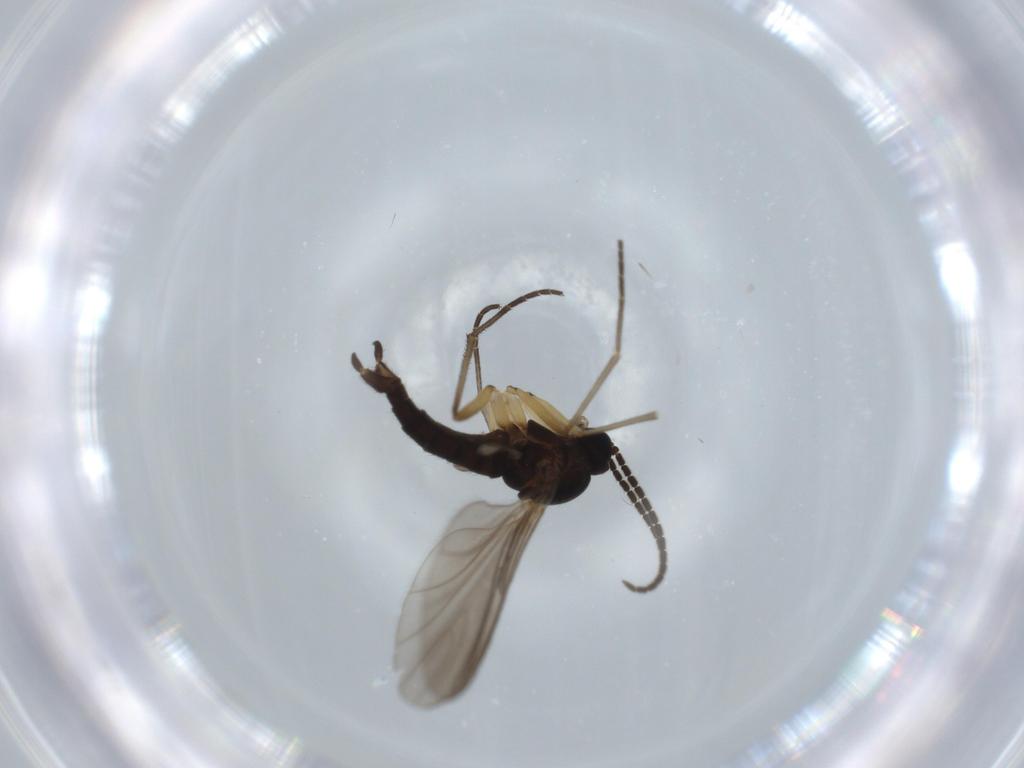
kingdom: Animalia
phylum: Arthropoda
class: Insecta
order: Diptera
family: Sciaridae
